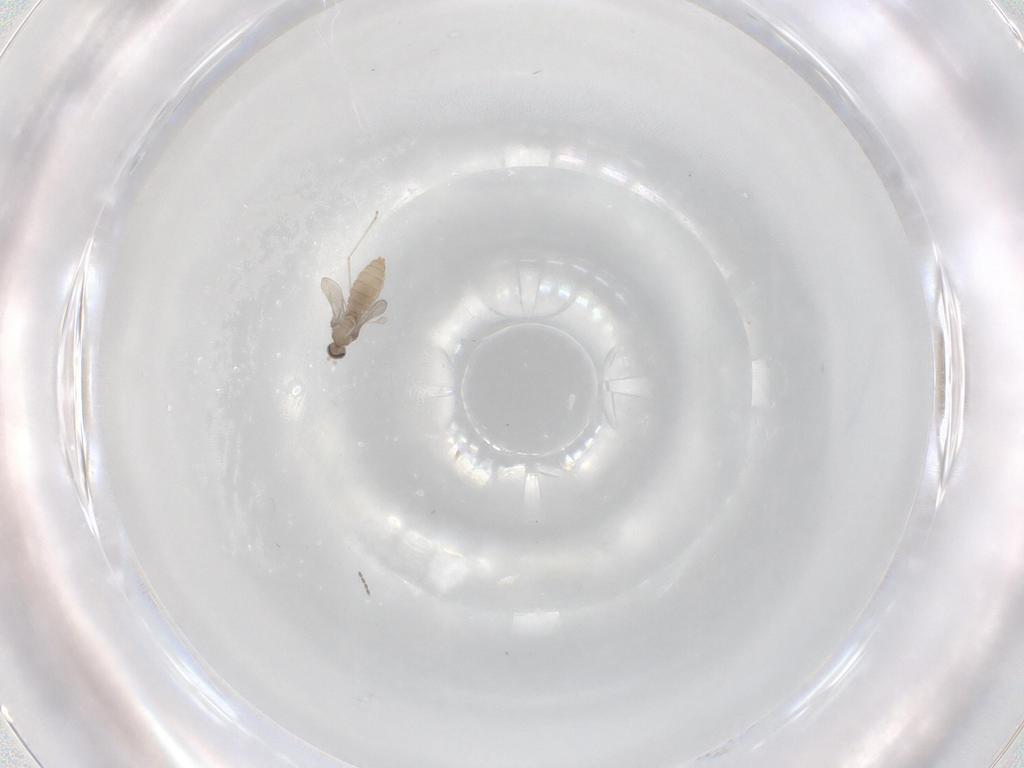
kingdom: Animalia
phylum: Arthropoda
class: Insecta
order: Diptera
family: Cecidomyiidae
